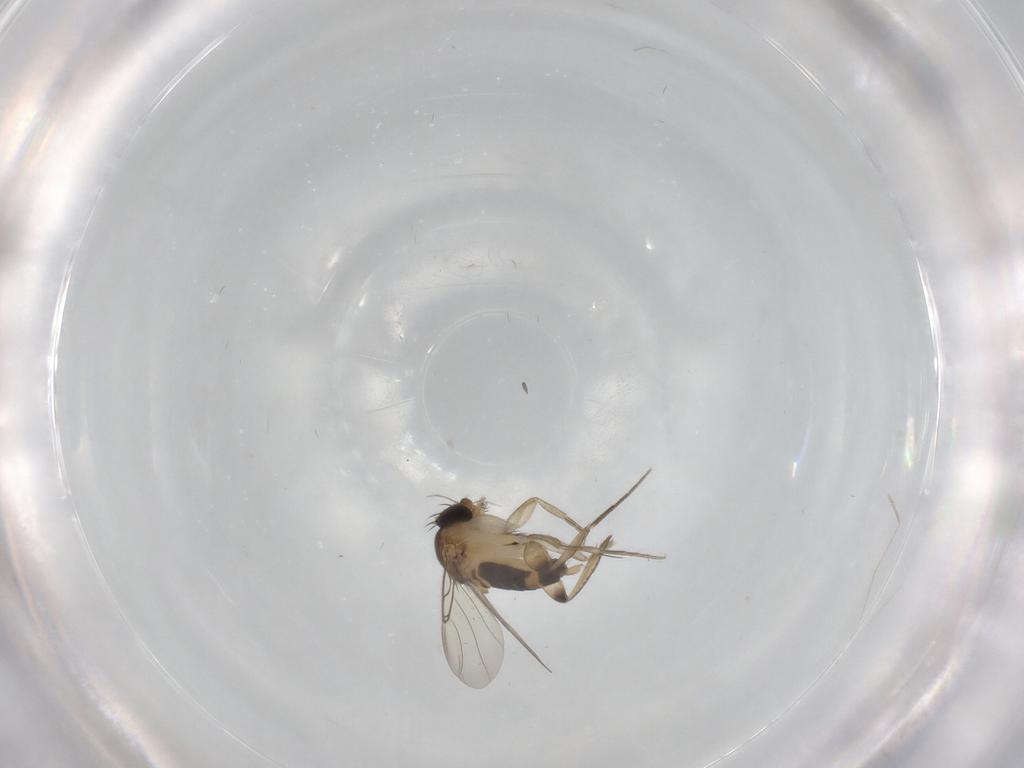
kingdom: Animalia
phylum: Arthropoda
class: Insecta
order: Diptera
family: Phoridae
